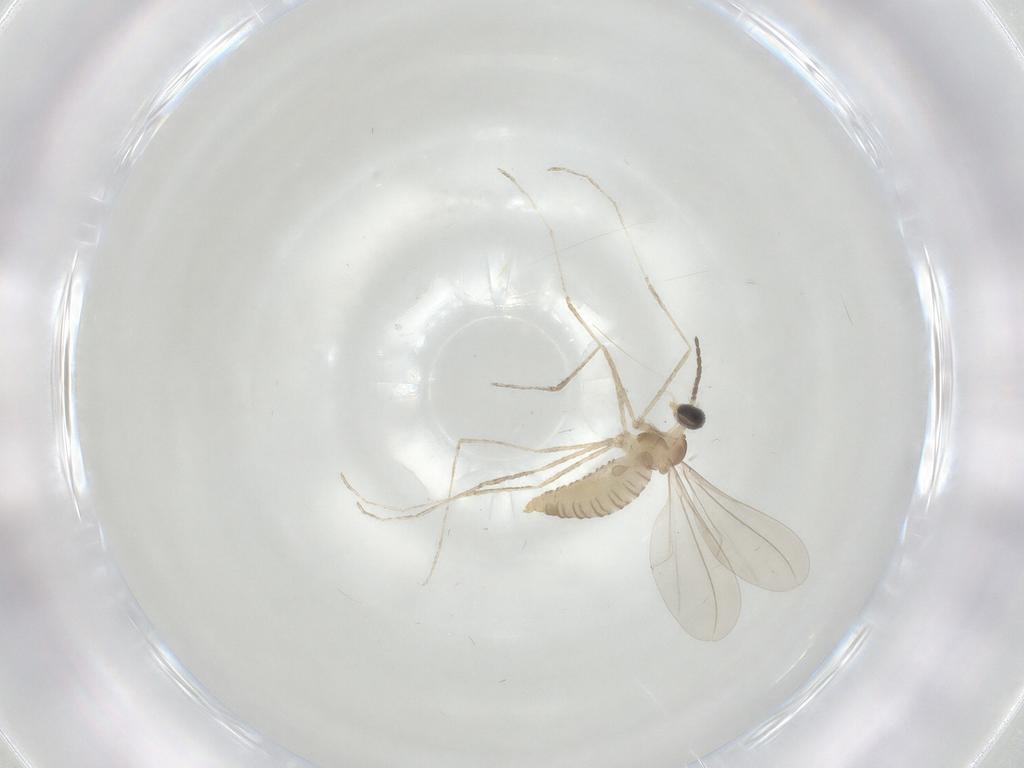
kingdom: Animalia
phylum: Arthropoda
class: Insecta
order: Diptera
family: Cecidomyiidae
